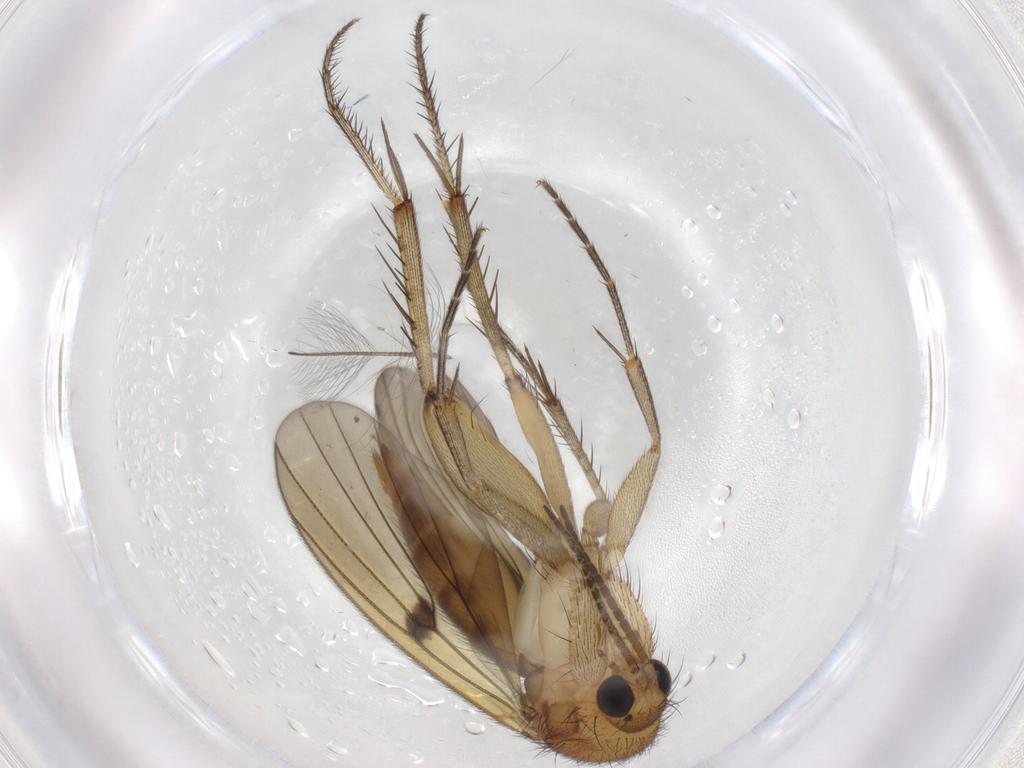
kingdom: Animalia
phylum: Arthropoda
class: Insecta
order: Diptera
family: Mycetophilidae
